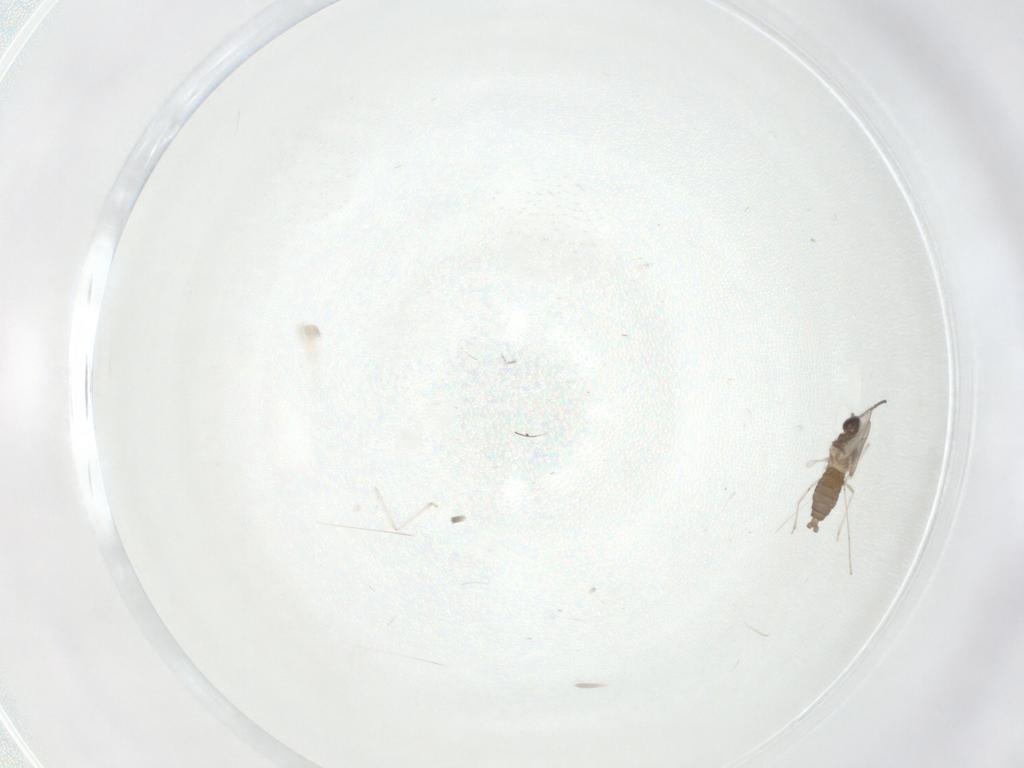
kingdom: Animalia
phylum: Arthropoda
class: Insecta
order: Diptera
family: Cecidomyiidae
